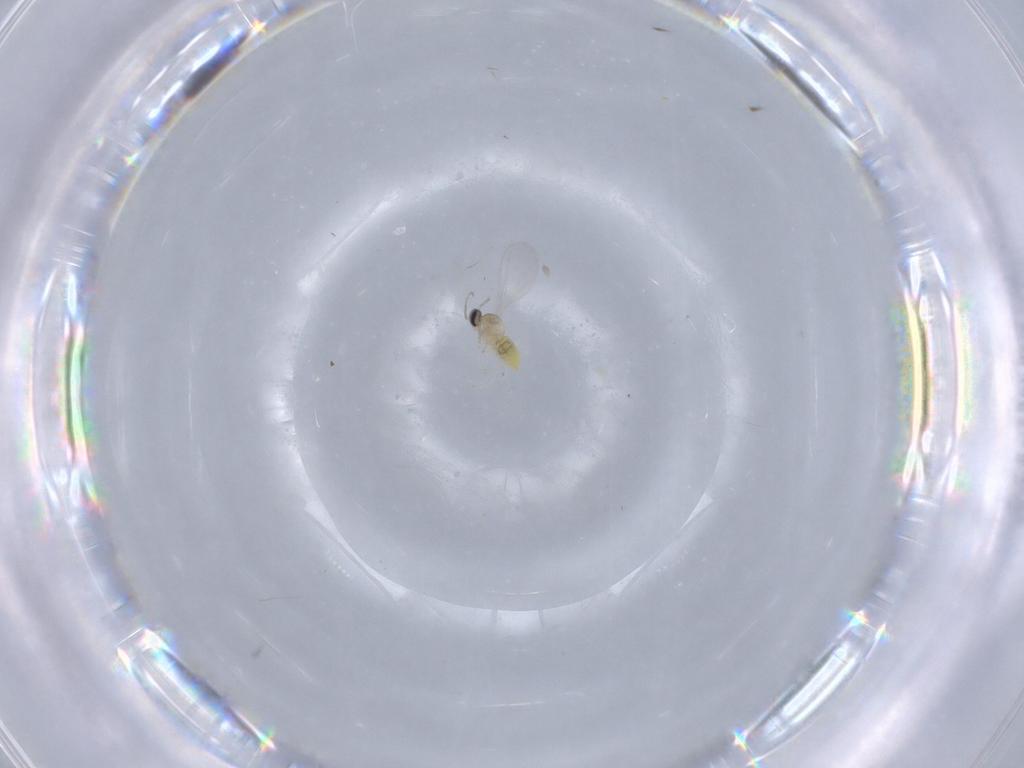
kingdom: Animalia
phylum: Arthropoda
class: Insecta
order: Diptera
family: Cecidomyiidae
